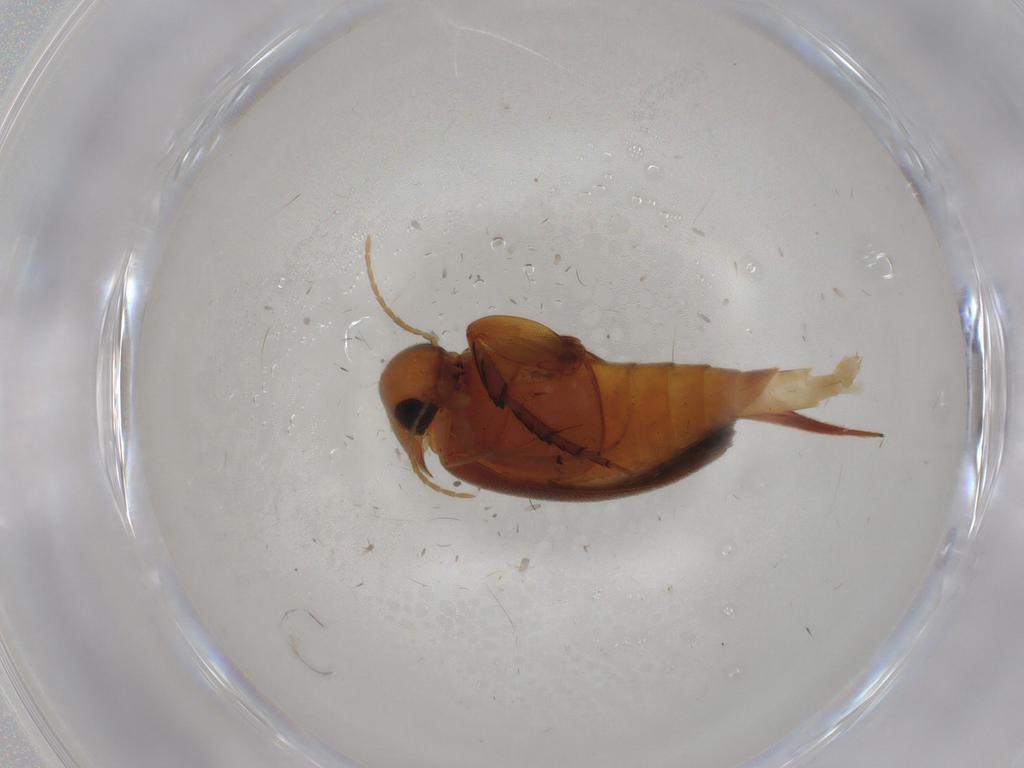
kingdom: Animalia
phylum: Arthropoda
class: Insecta
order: Coleoptera
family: Mordellidae
